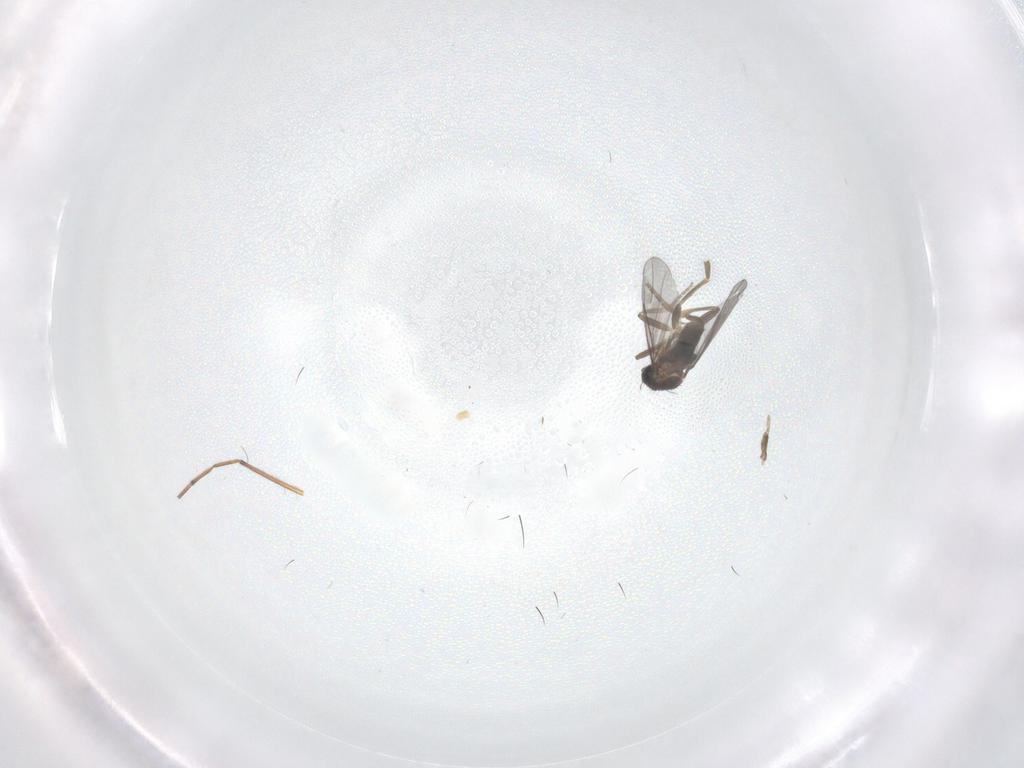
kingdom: Animalia
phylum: Arthropoda
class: Insecta
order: Diptera
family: Chironomidae
